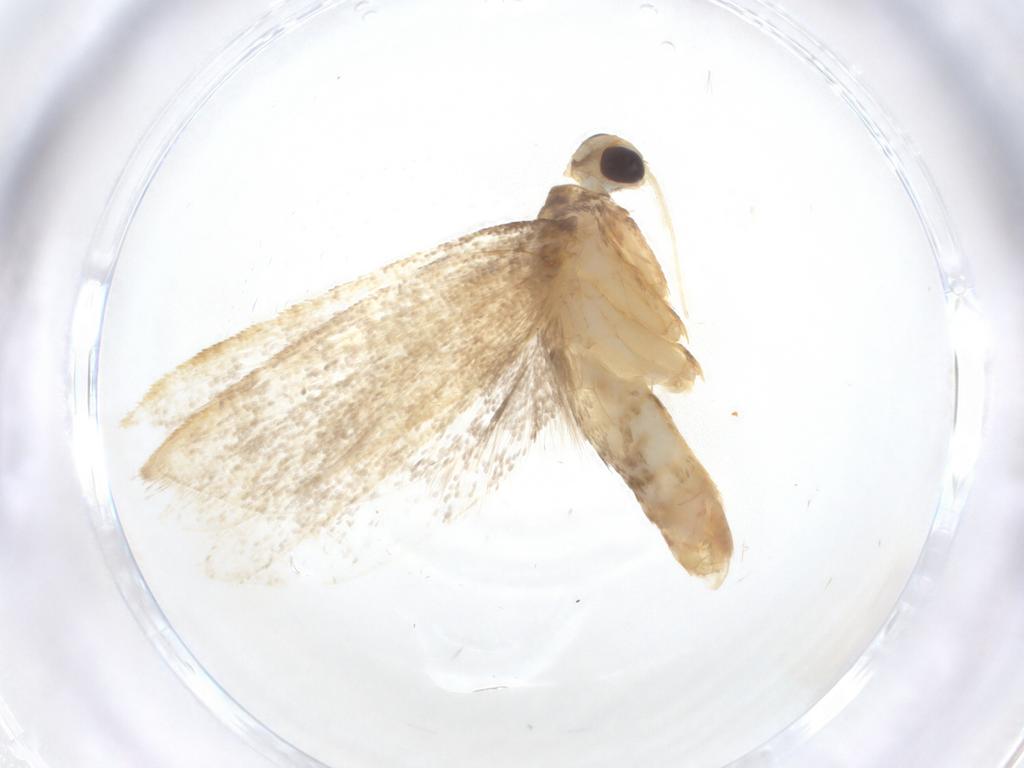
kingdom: Animalia
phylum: Arthropoda
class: Insecta
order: Lepidoptera
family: Lecithoceridae
